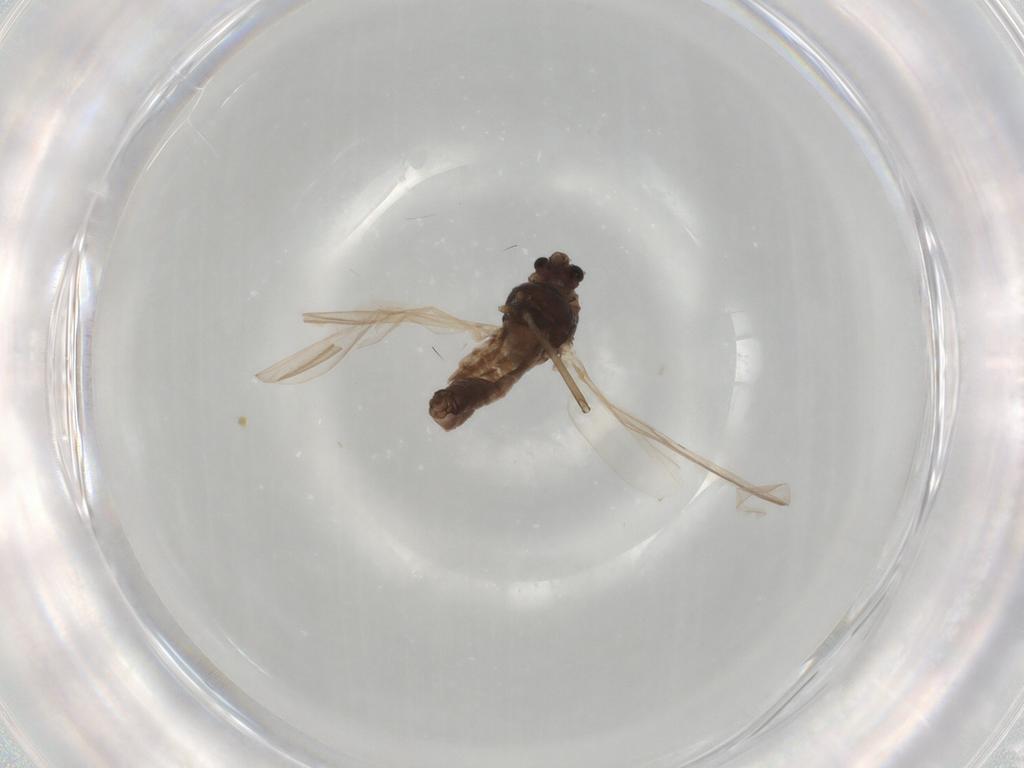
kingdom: Animalia
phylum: Arthropoda
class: Insecta
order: Diptera
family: Chironomidae
